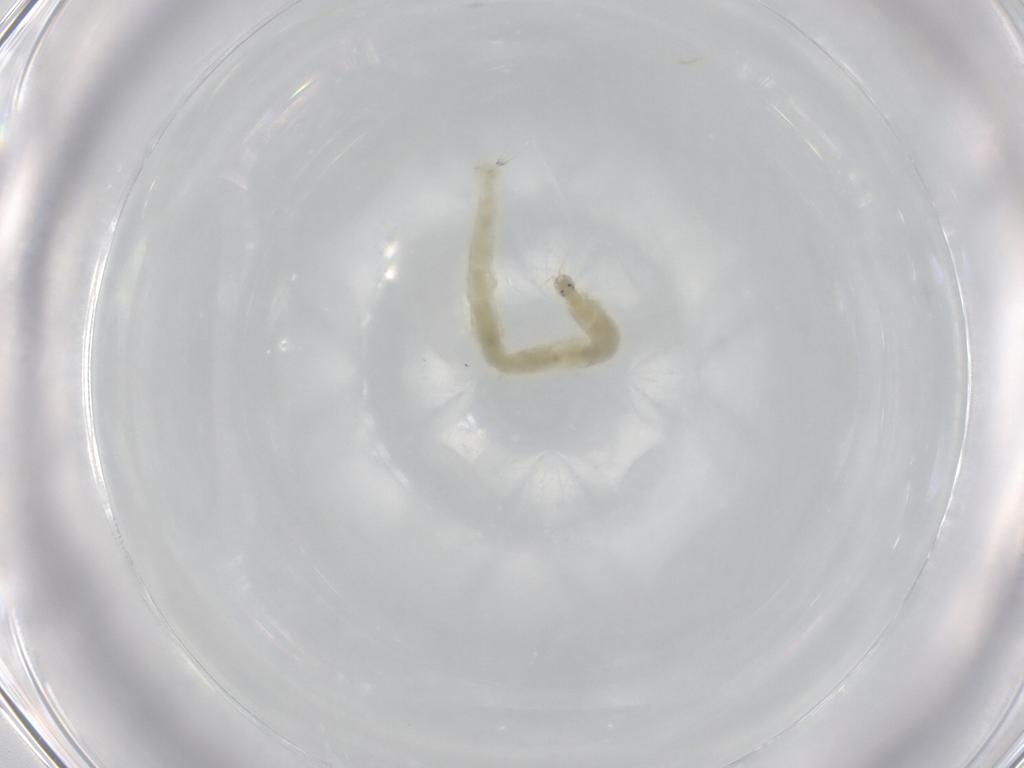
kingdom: Animalia
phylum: Arthropoda
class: Insecta
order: Diptera
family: Chironomidae
